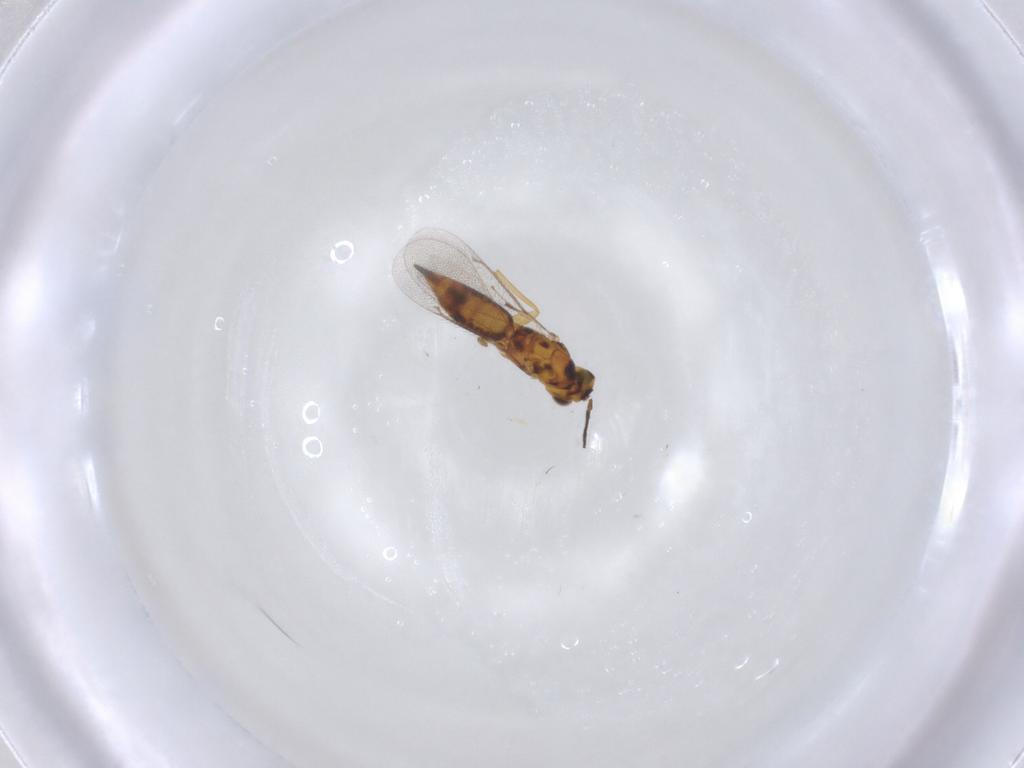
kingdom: Animalia
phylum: Arthropoda
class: Insecta
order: Hymenoptera
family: Eulophidae
